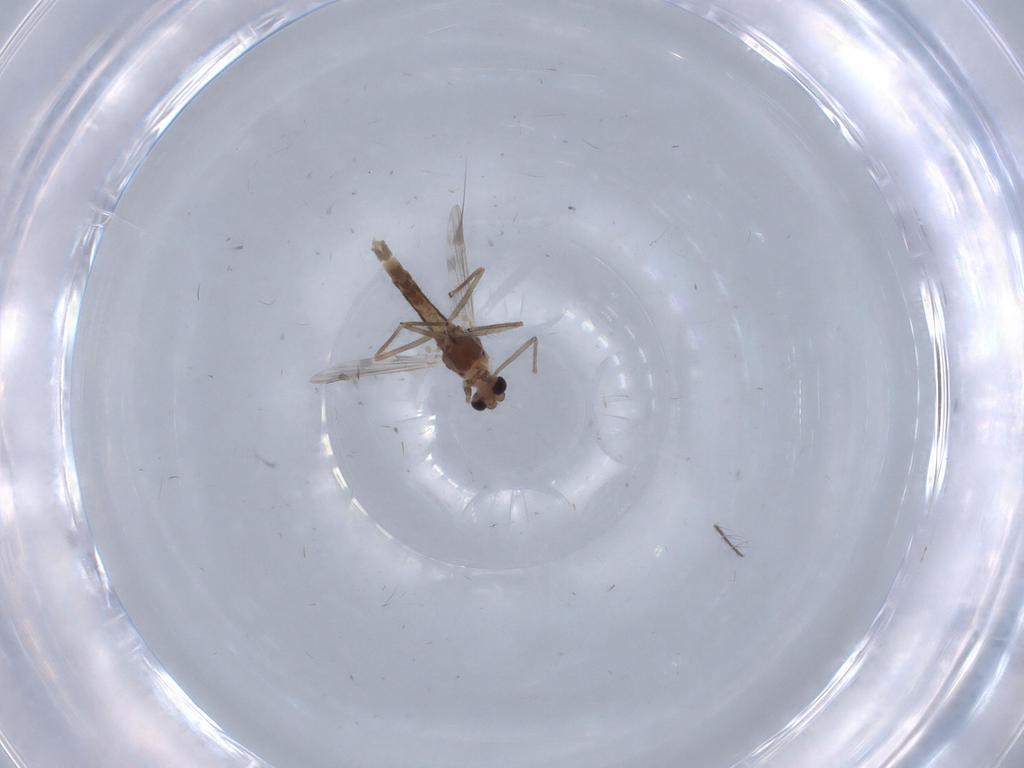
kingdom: Animalia
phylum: Arthropoda
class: Insecta
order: Diptera
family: Chironomidae
